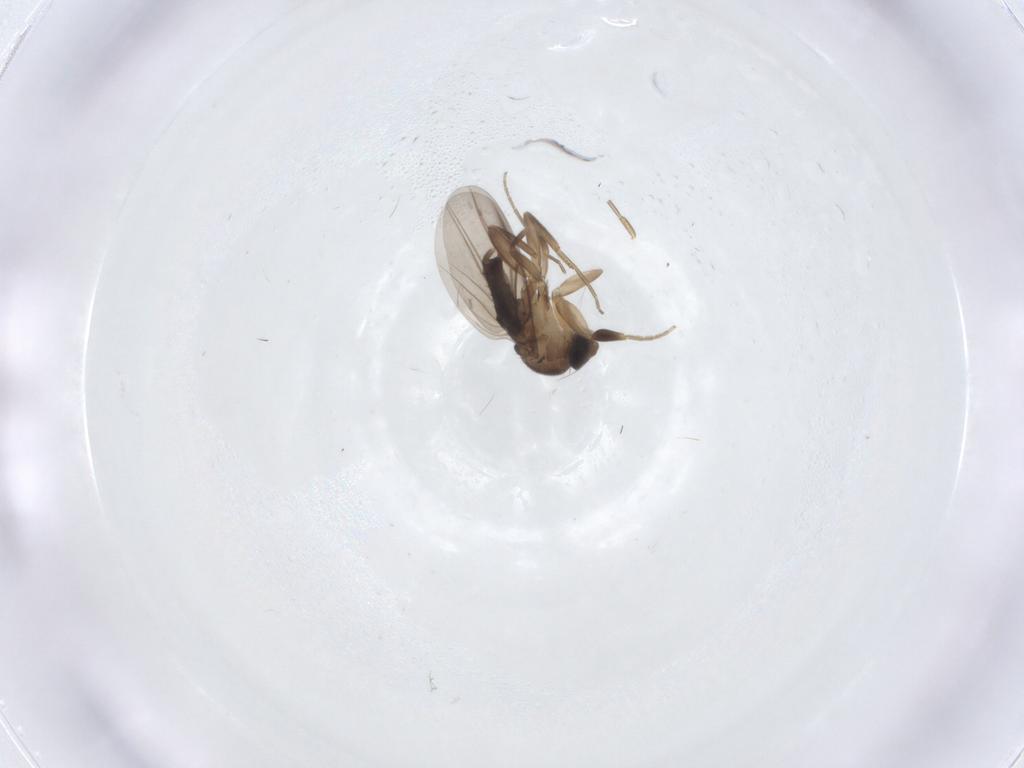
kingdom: Animalia
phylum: Arthropoda
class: Insecta
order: Diptera
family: Phoridae
